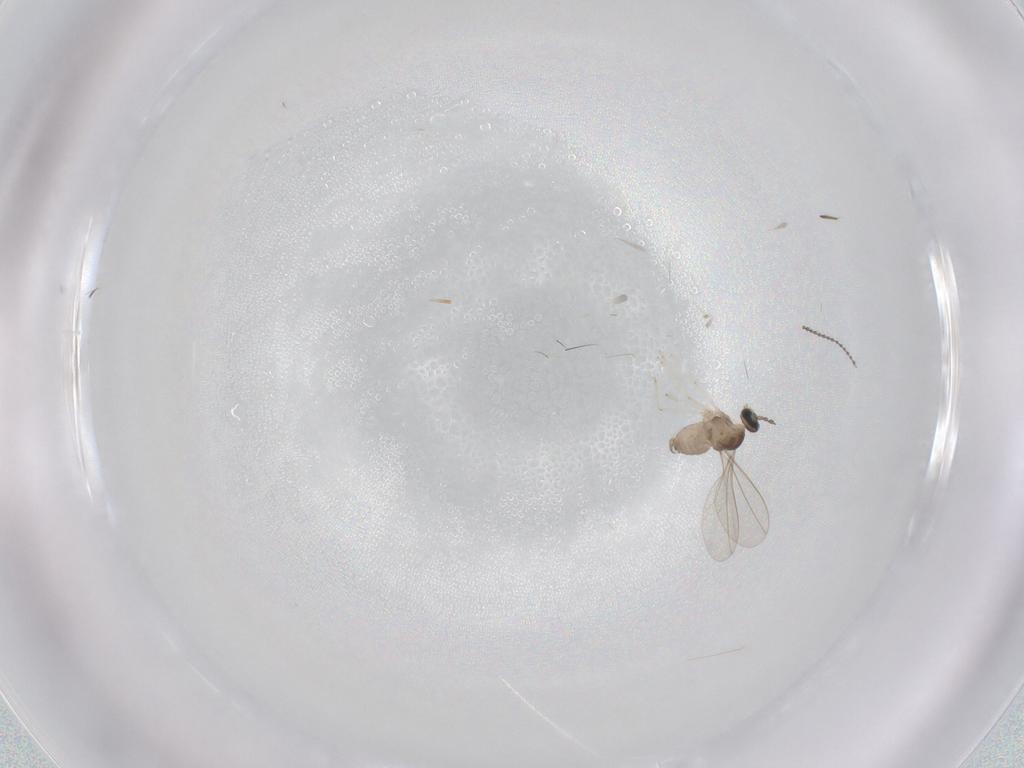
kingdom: Animalia
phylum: Arthropoda
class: Insecta
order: Diptera
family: Cecidomyiidae
